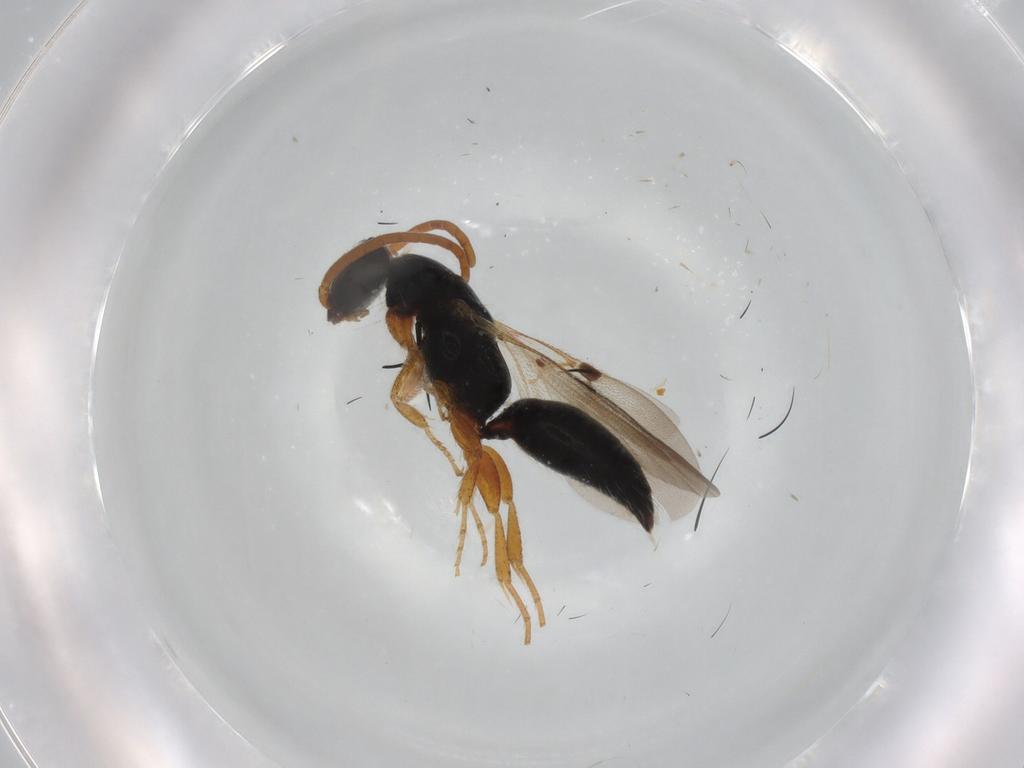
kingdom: Animalia
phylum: Arthropoda
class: Insecta
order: Hymenoptera
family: Bethylidae
